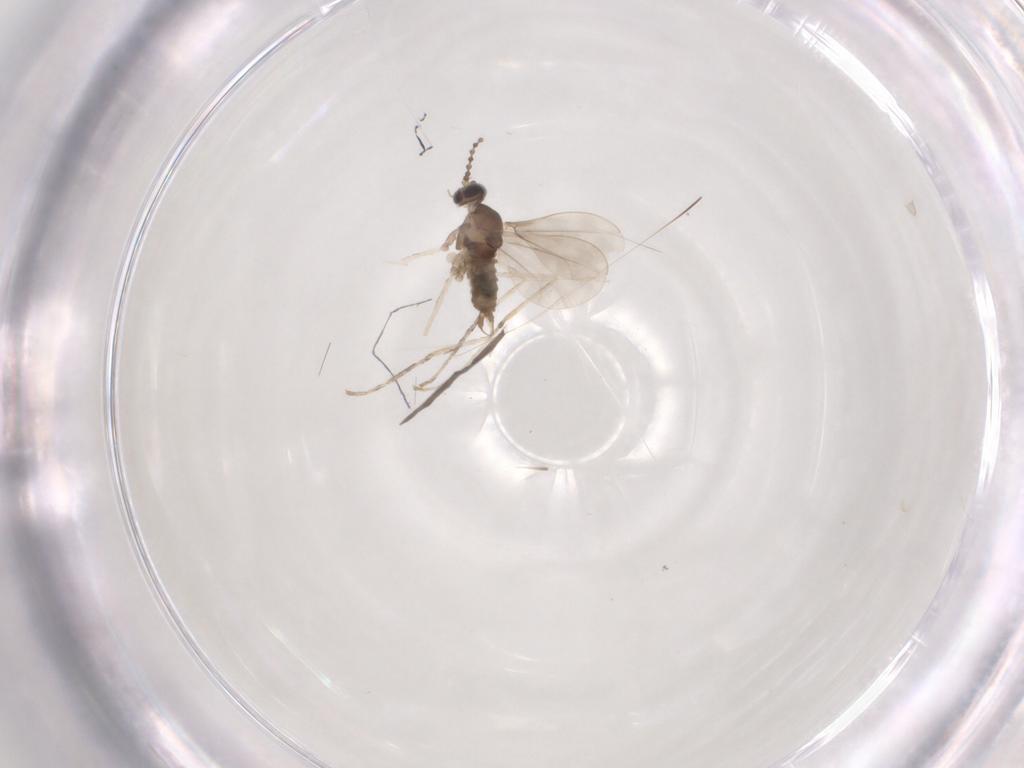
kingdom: Animalia
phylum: Arthropoda
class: Insecta
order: Diptera
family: Cecidomyiidae
